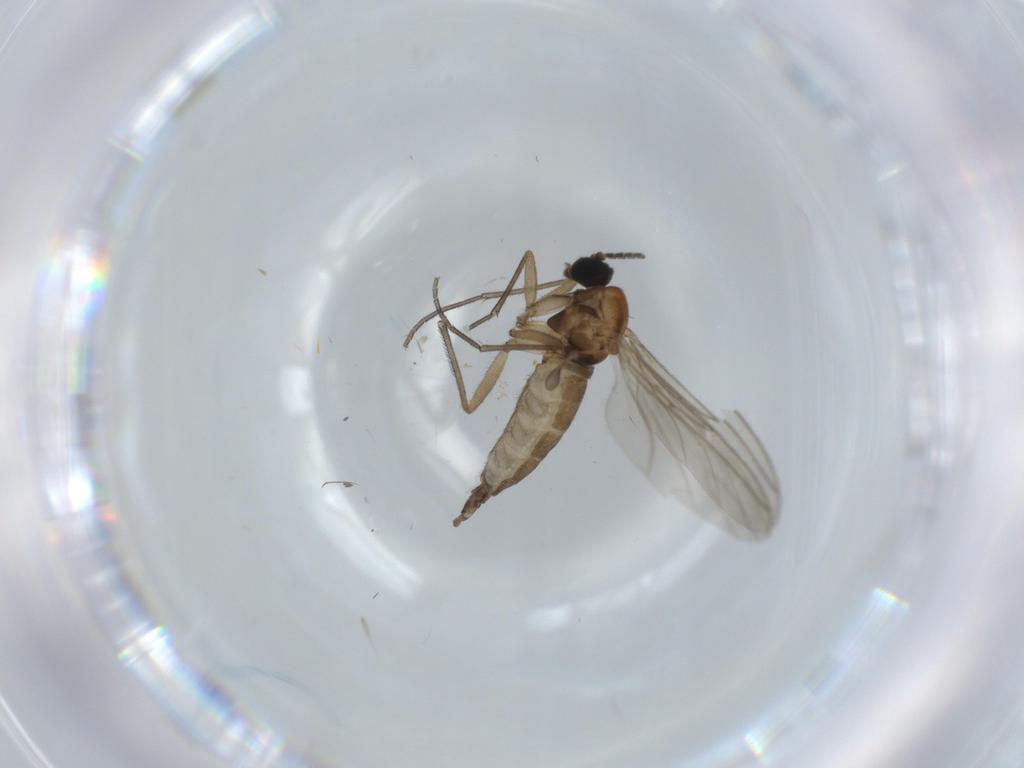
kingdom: Animalia
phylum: Arthropoda
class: Insecta
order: Diptera
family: Sciaridae
